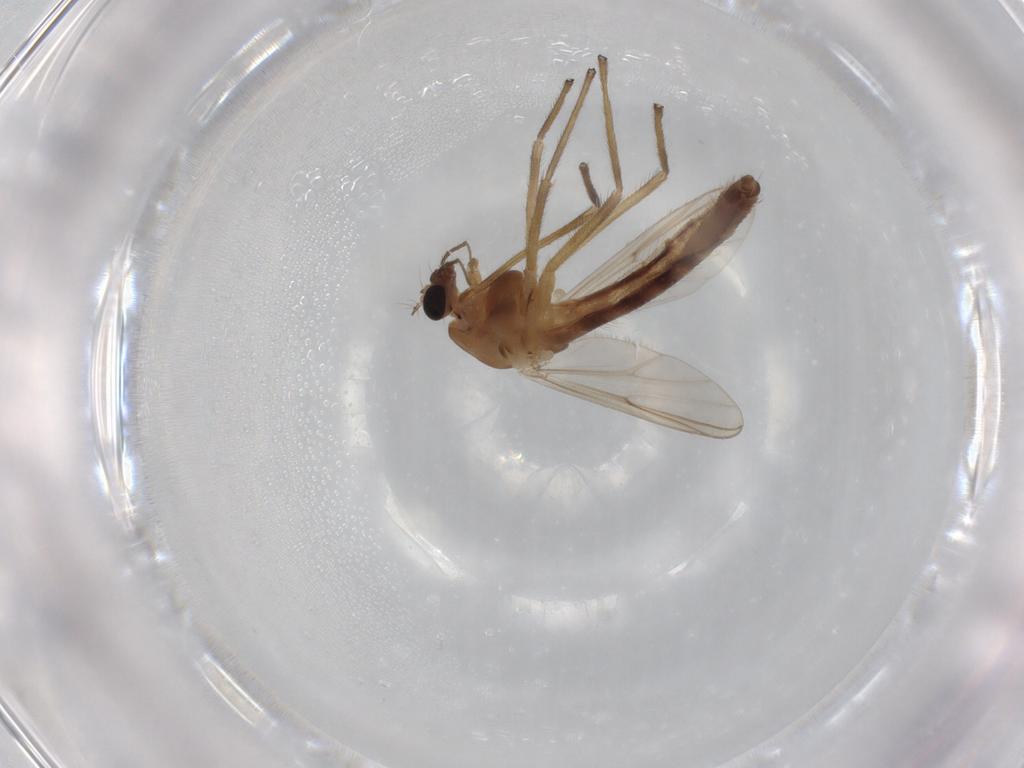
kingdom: Animalia
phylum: Arthropoda
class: Insecta
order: Diptera
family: Chironomidae
